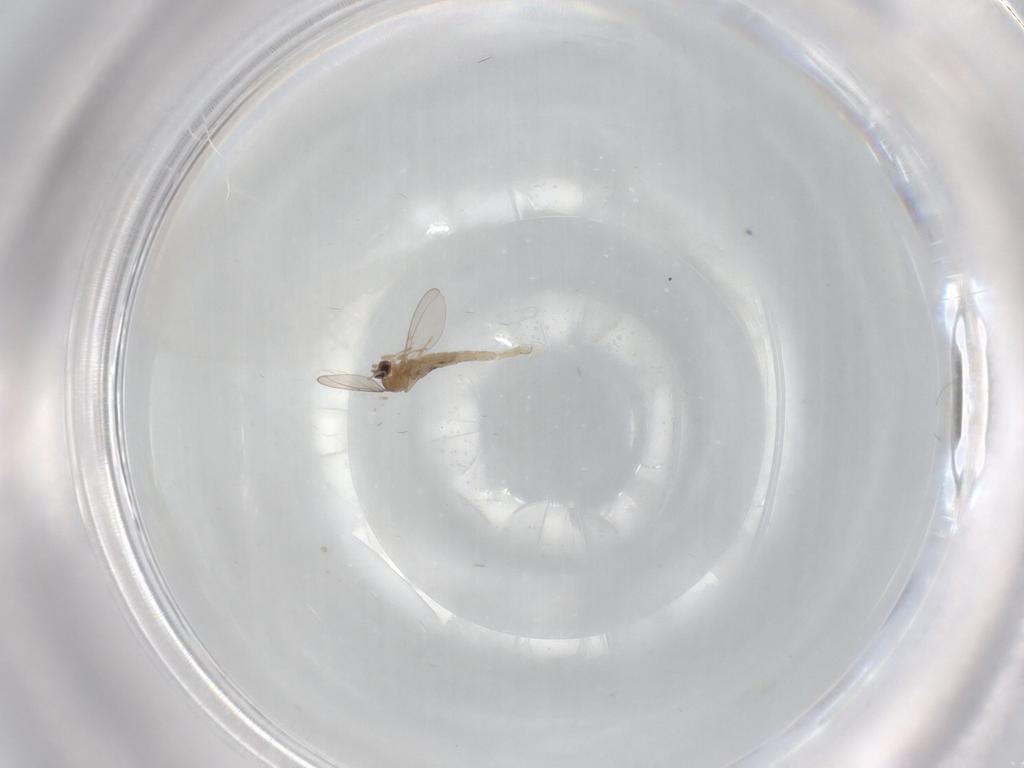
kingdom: Animalia
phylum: Arthropoda
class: Insecta
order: Diptera
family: Cecidomyiidae
